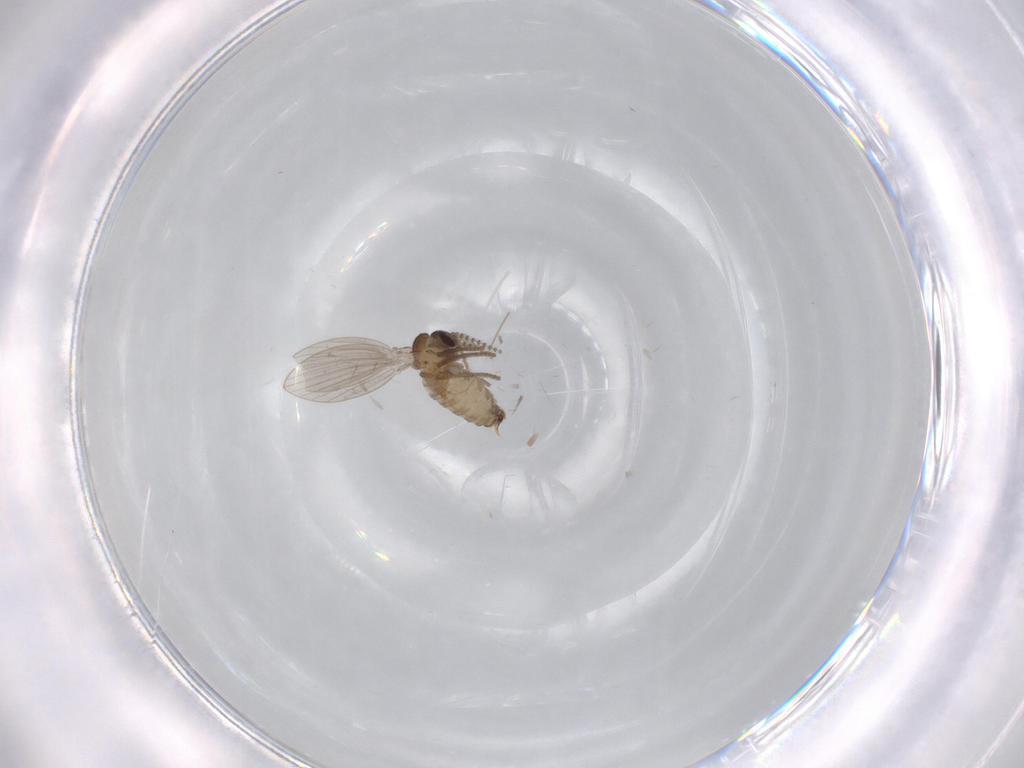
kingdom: Animalia
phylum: Arthropoda
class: Insecta
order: Diptera
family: Psychodidae
